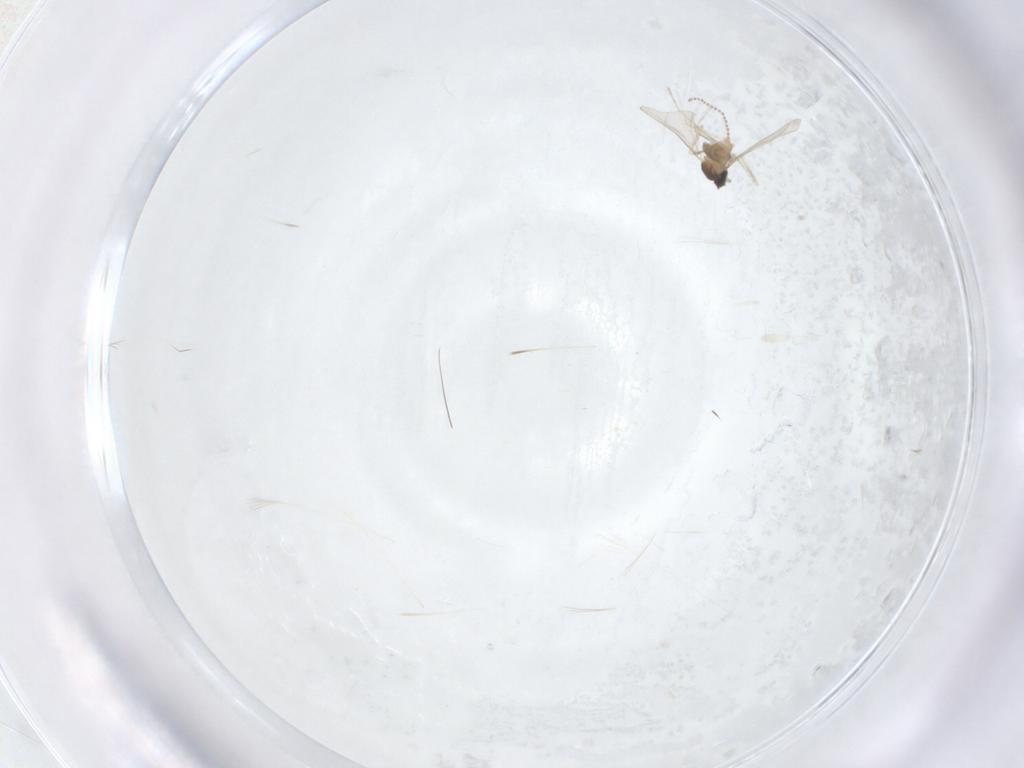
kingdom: Animalia
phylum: Arthropoda
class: Insecta
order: Diptera
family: Cecidomyiidae
